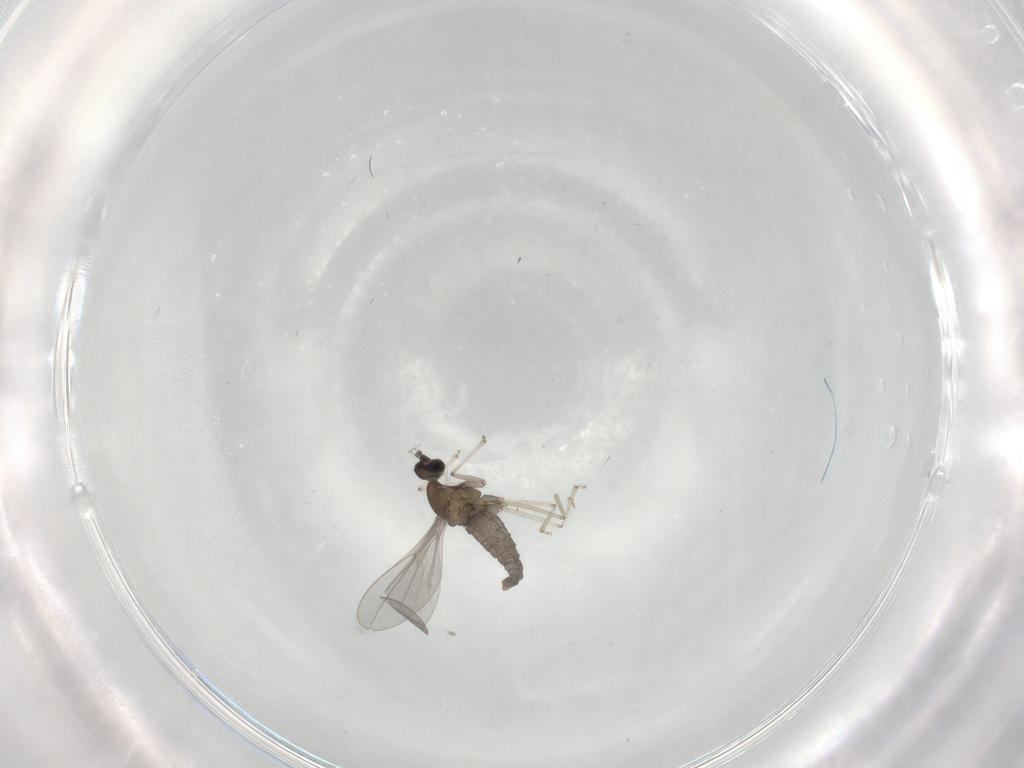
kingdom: Animalia
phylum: Arthropoda
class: Insecta
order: Diptera
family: Cecidomyiidae
